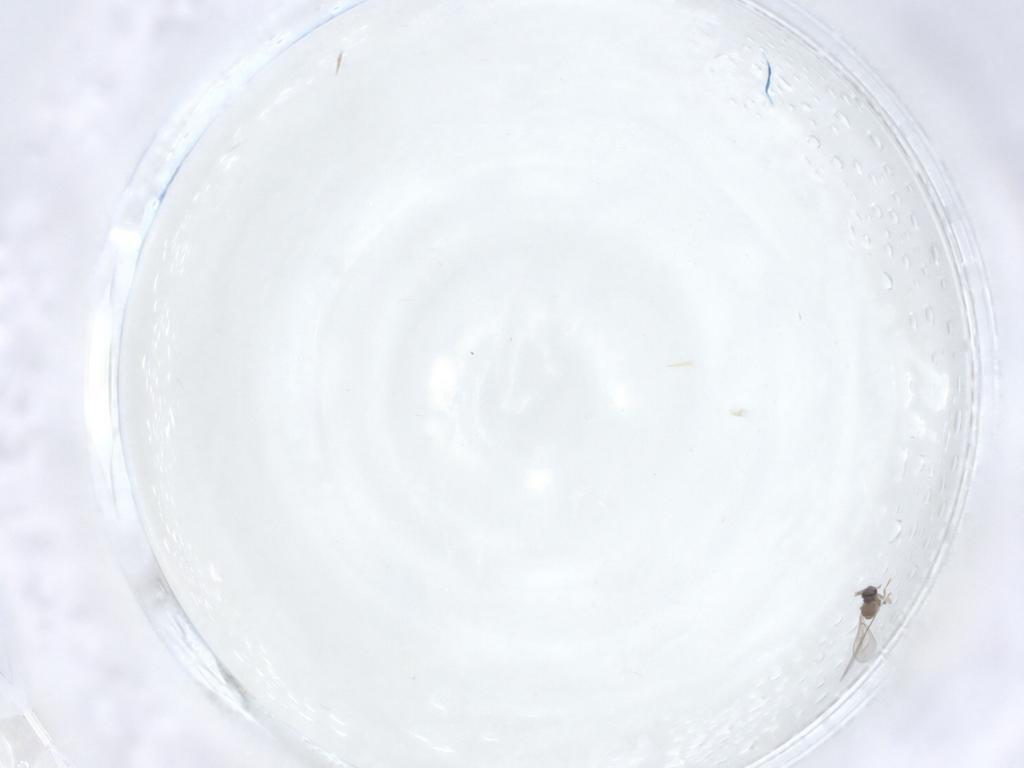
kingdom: Animalia
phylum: Arthropoda
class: Insecta
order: Diptera
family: Cecidomyiidae
